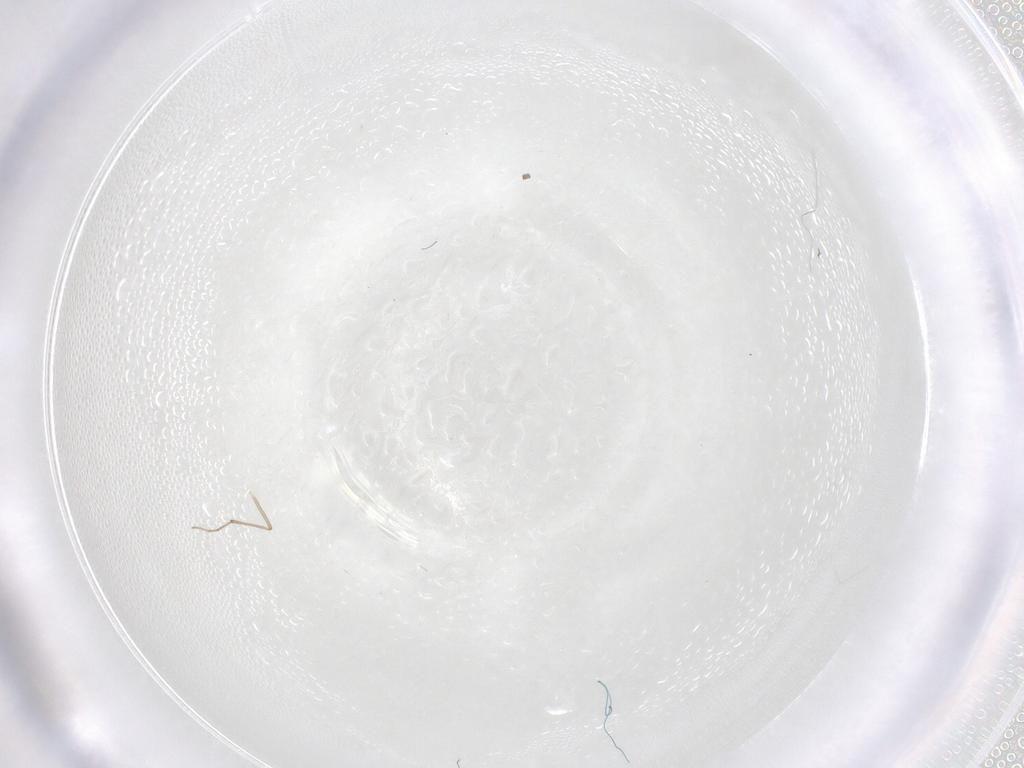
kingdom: Animalia
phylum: Arthropoda
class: Insecta
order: Diptera
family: Chironomidae
